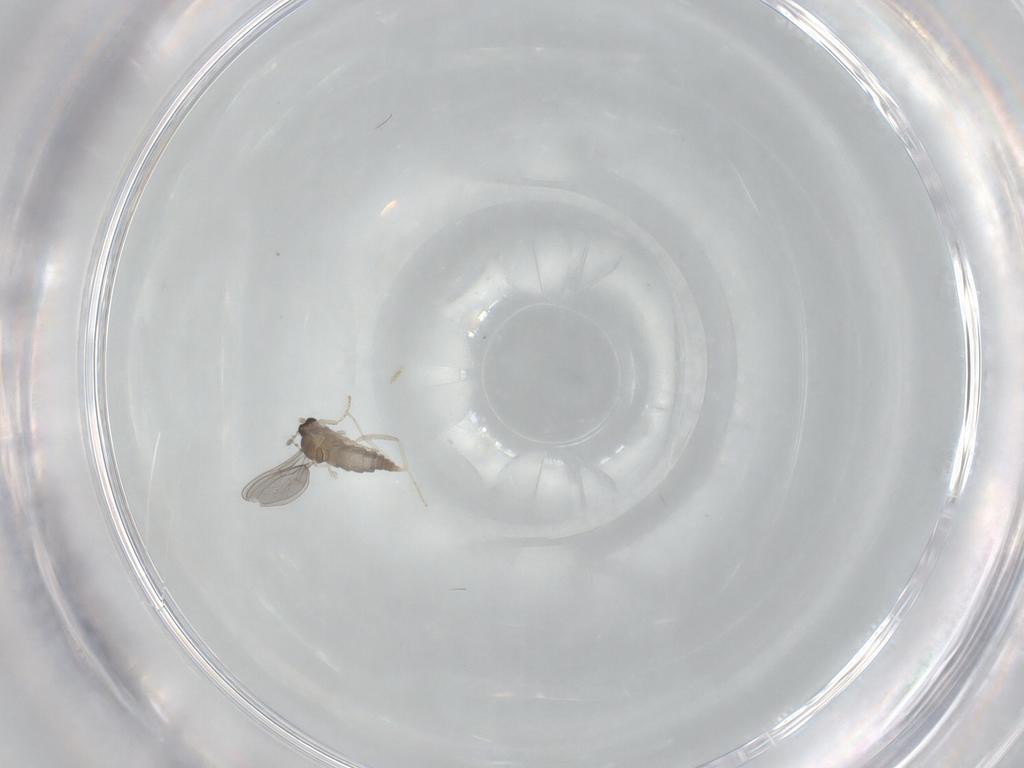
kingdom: Animalia
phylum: Arthropoda
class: Insecta
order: Diptera
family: Cecidomyiidae
